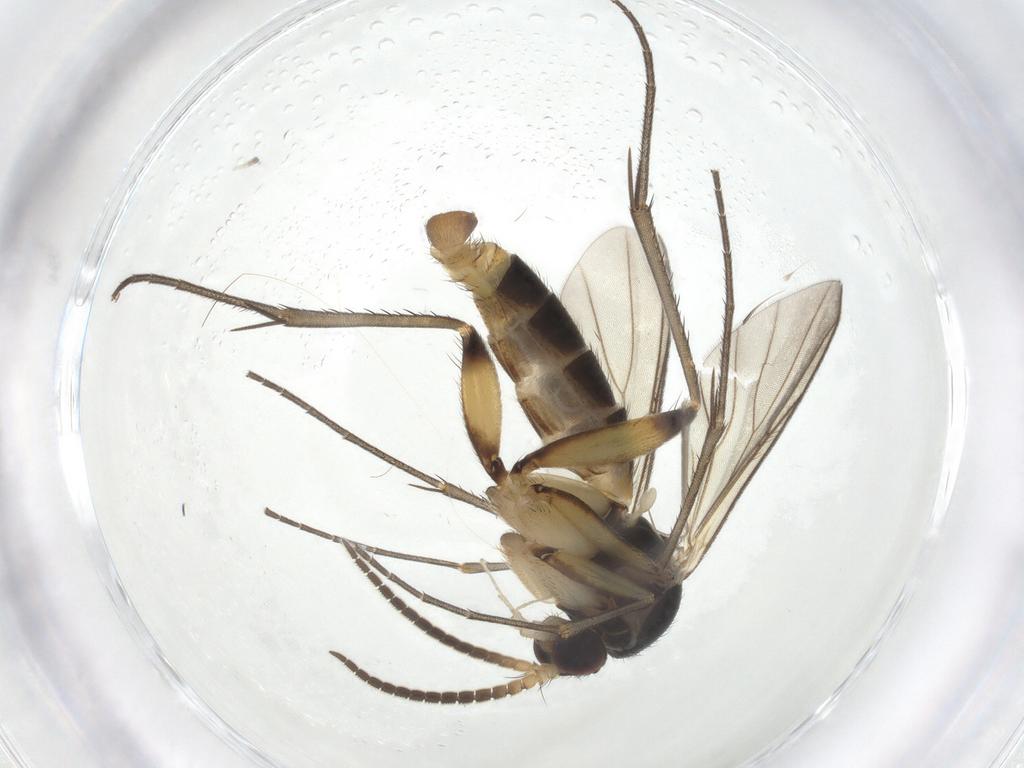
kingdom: Animalia
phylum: Arthropoda
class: Insecta
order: Diptera
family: Mycetophilidae
